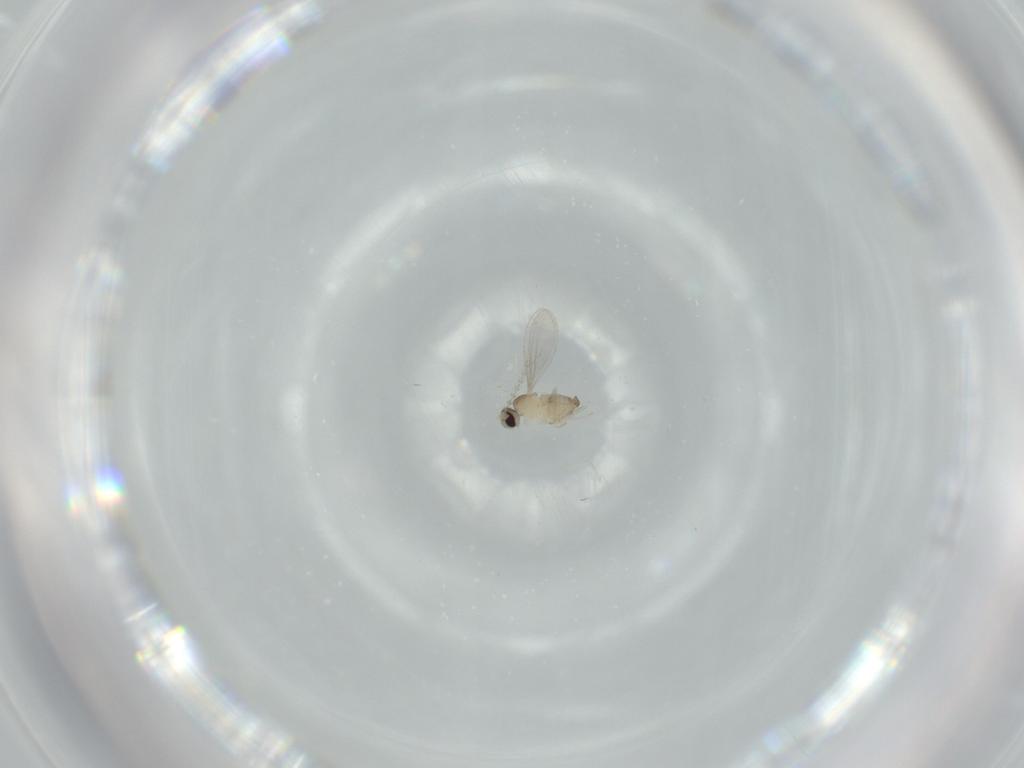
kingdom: Animalia
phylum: Arthropoda
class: Insecta
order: Diptera
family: Cecidomyiidae
